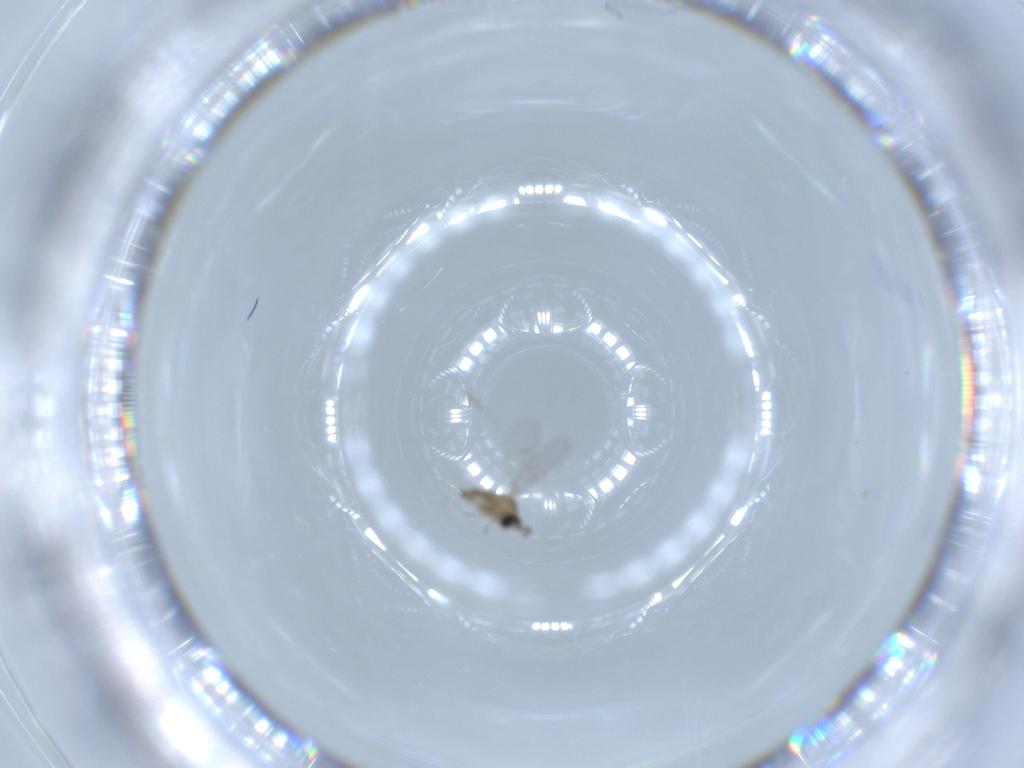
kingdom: Animalia
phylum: Arthropoda
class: Insecta
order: Diptera
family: Cecidomyiidae
